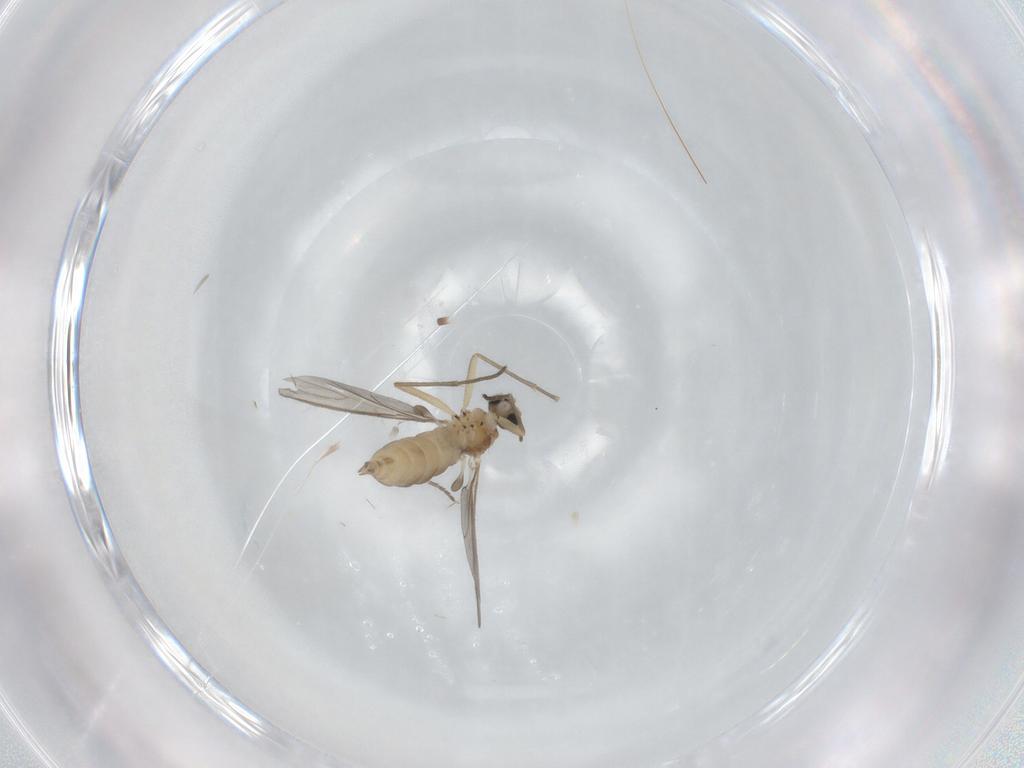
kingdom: Animalia
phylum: Arthropoda
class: Insecta
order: Diptera
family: Sciaridae
